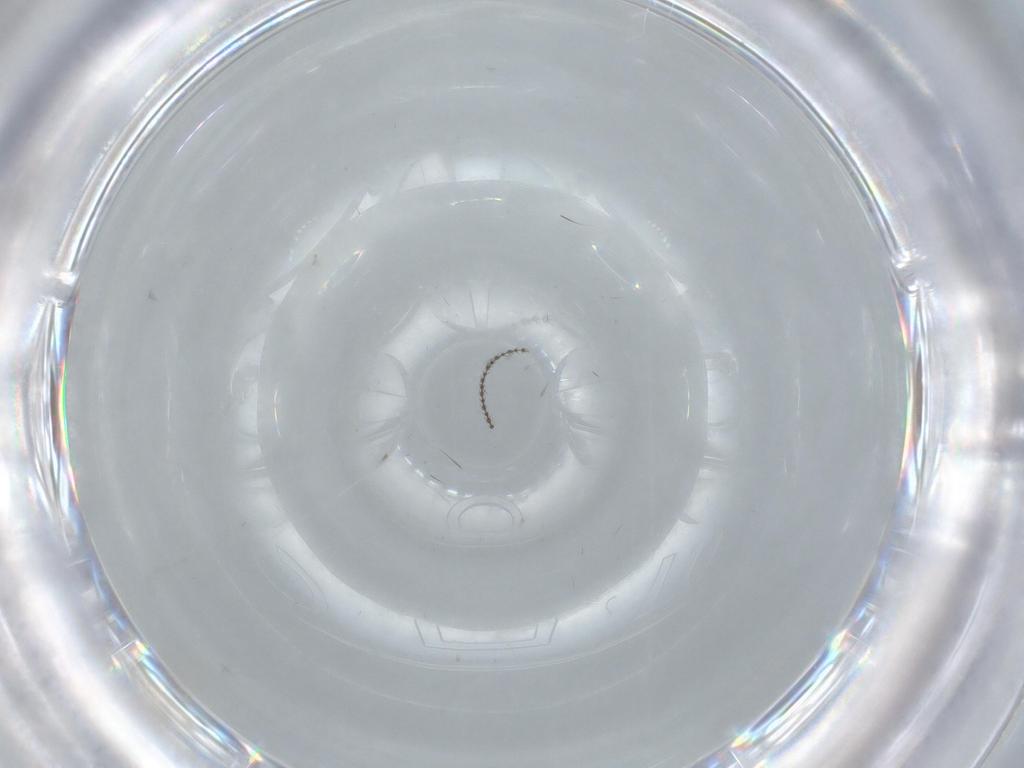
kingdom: Animalia
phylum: Arthropoda
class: Insecta
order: Diptera
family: Cecidomyiidae
